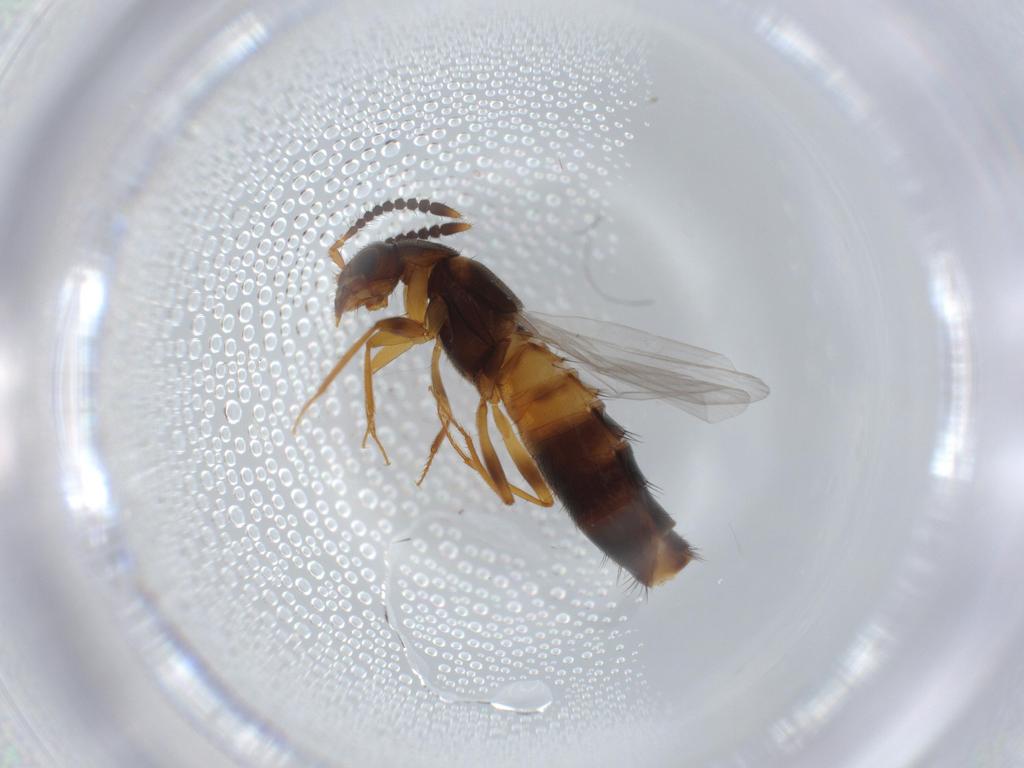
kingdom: Animalia
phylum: Arthropoda
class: Insecta
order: Coleoptera
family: Staphylinidae
